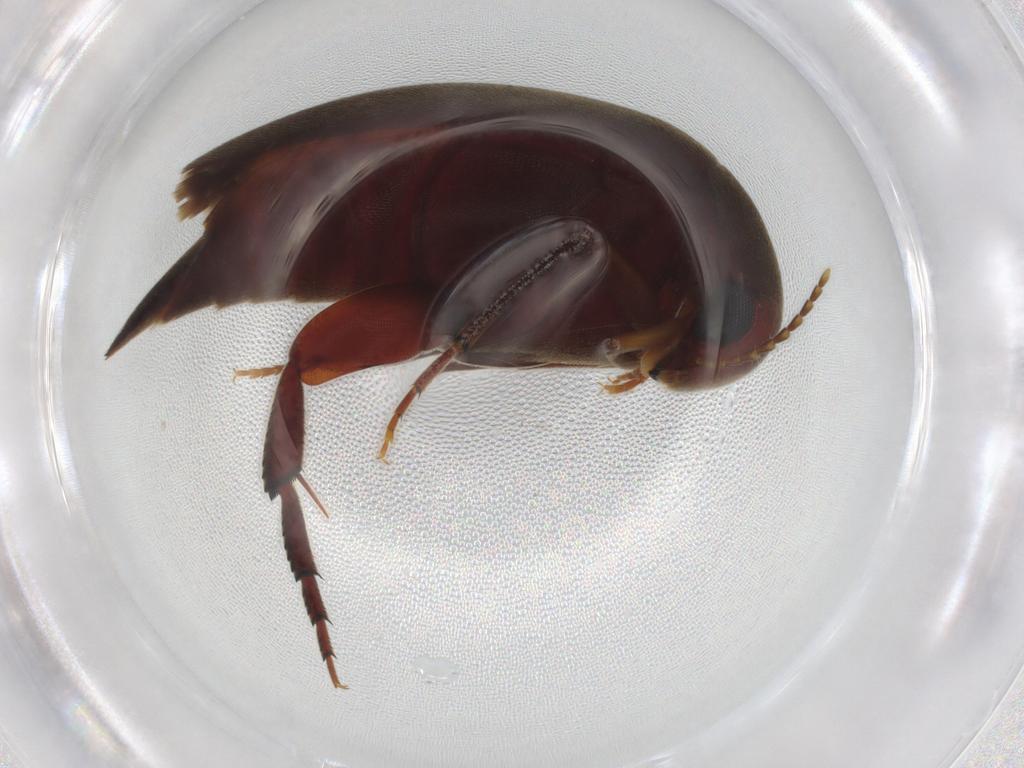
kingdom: Animalia
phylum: Arthropoda
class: Insecta
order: Coleoptera
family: Mordellidae
